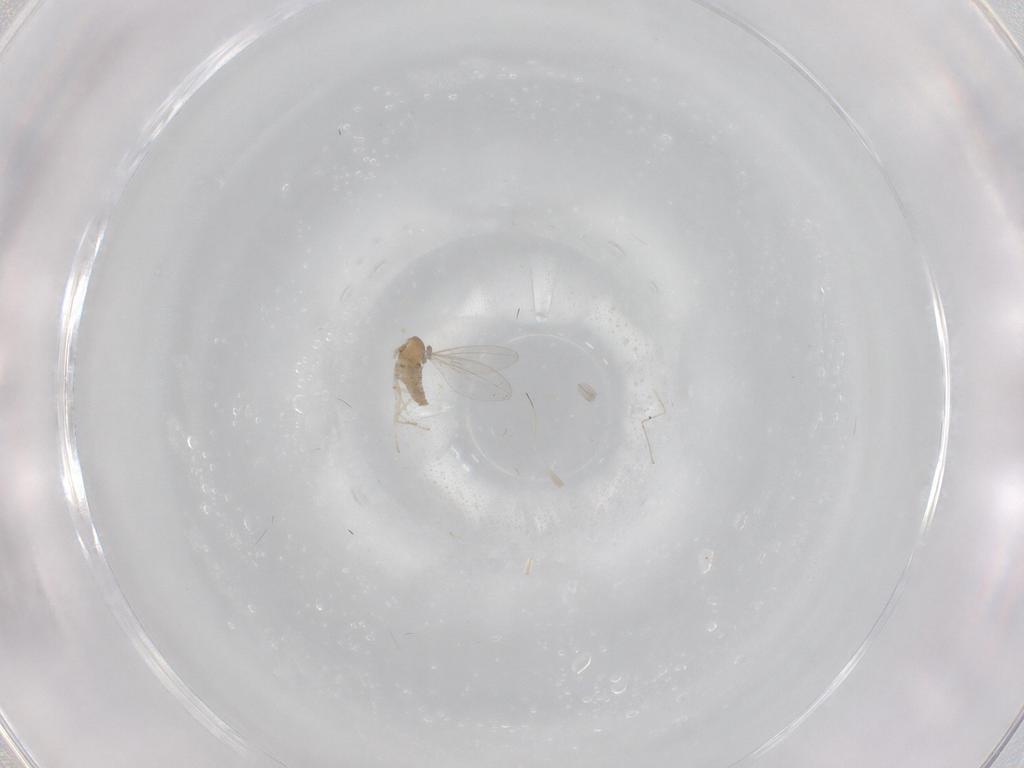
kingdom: Animalia
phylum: Arthropoda
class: Insecta
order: Diptera
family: Cecidomyiidae
